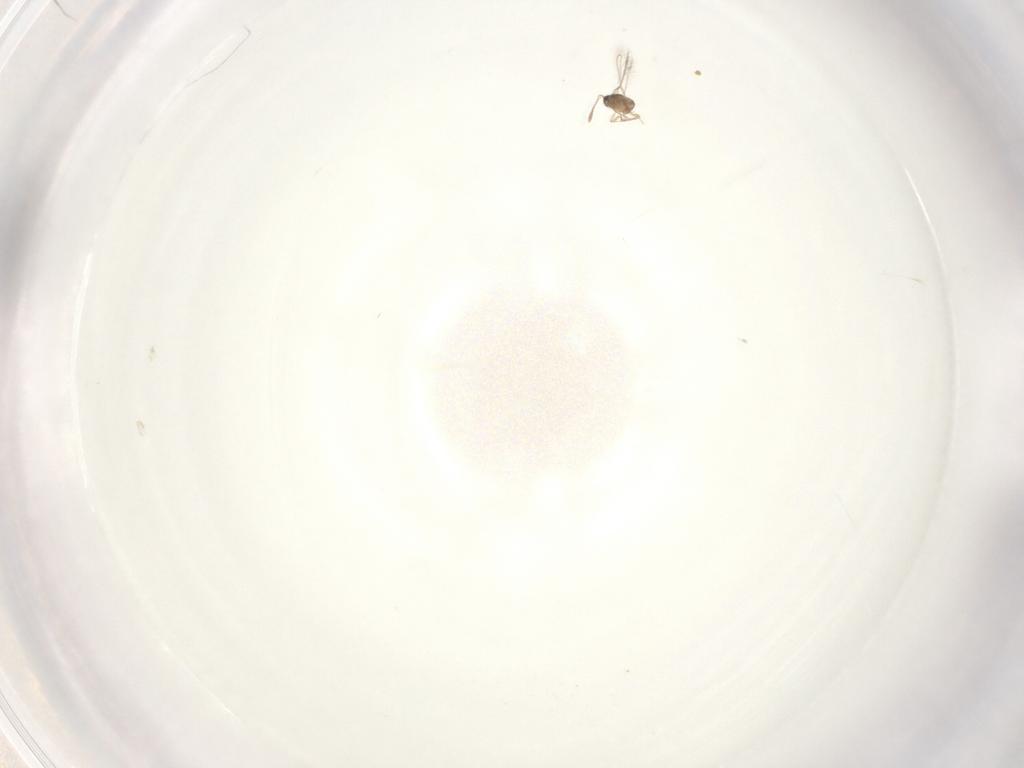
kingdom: Animalia
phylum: Arthropoda
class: Insecta
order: Hymenoptera
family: Mymaridae
